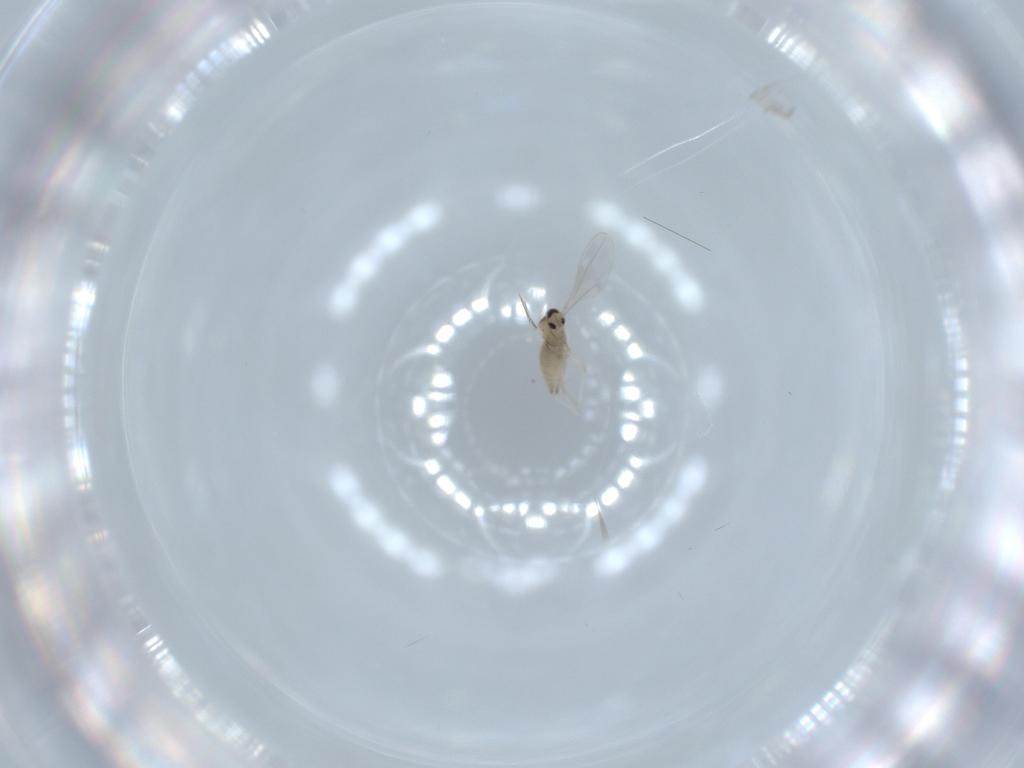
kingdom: Animalia
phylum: Arthropoda
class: Insecta
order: Diptera
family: Cecidomyiidae
